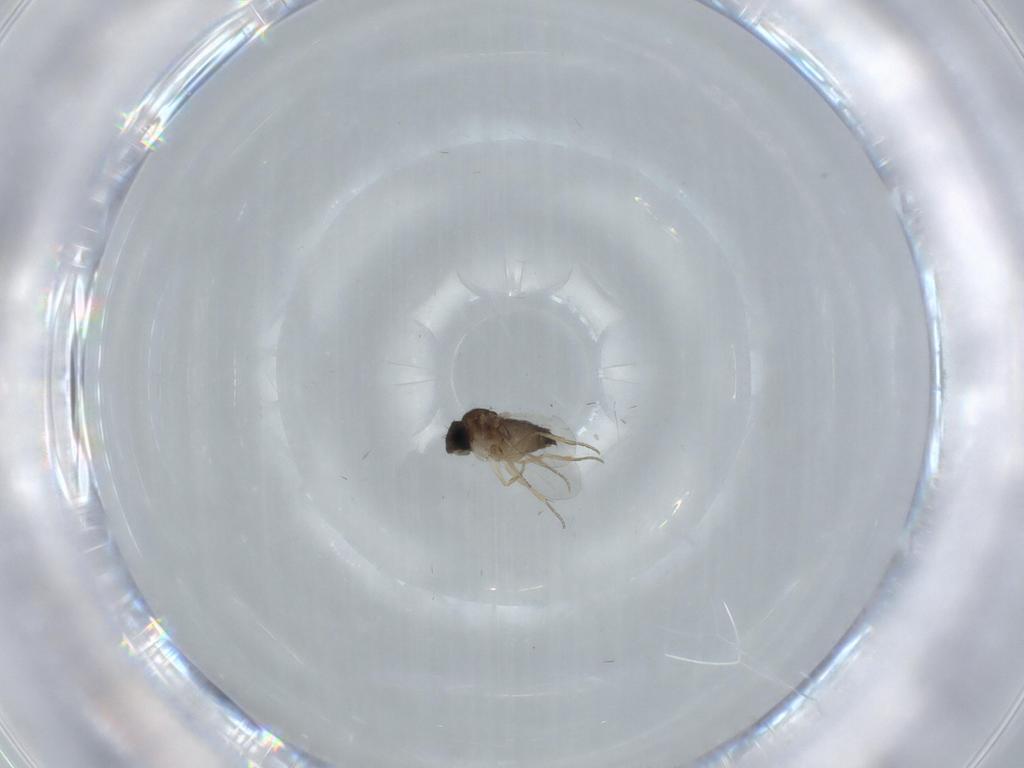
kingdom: Animalia
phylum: Arthropoda
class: Insecta
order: Diptera
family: Phoridae
